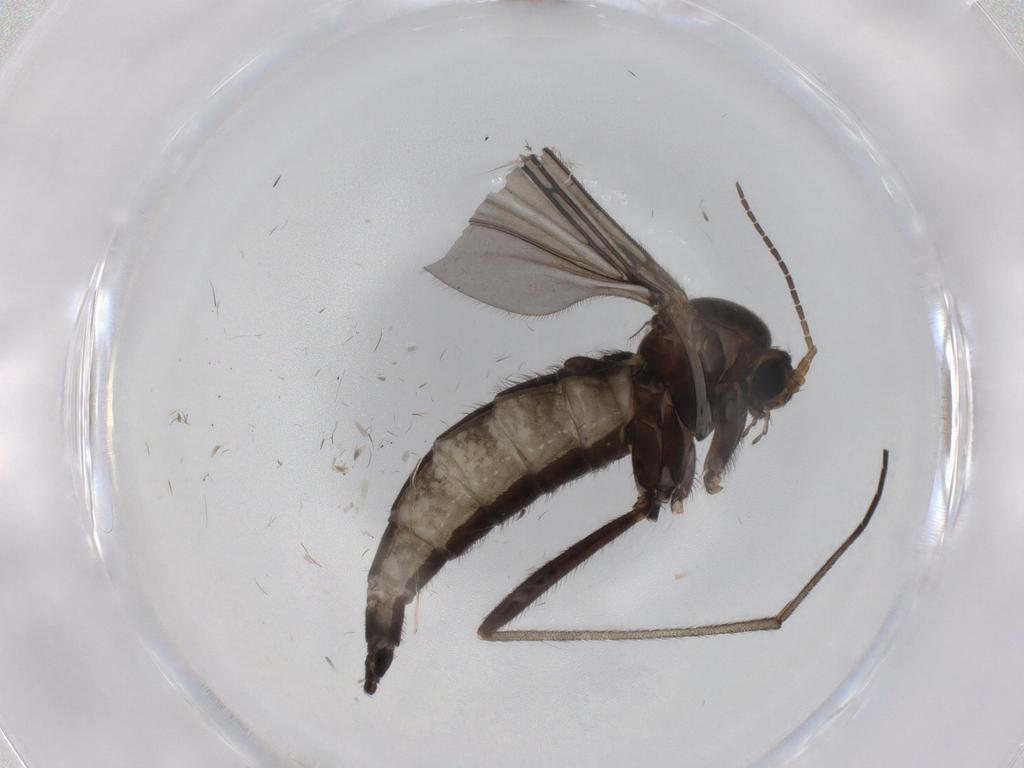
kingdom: Animalia
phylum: Arthropoda
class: Insecta
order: Diptera
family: Sciaridae
